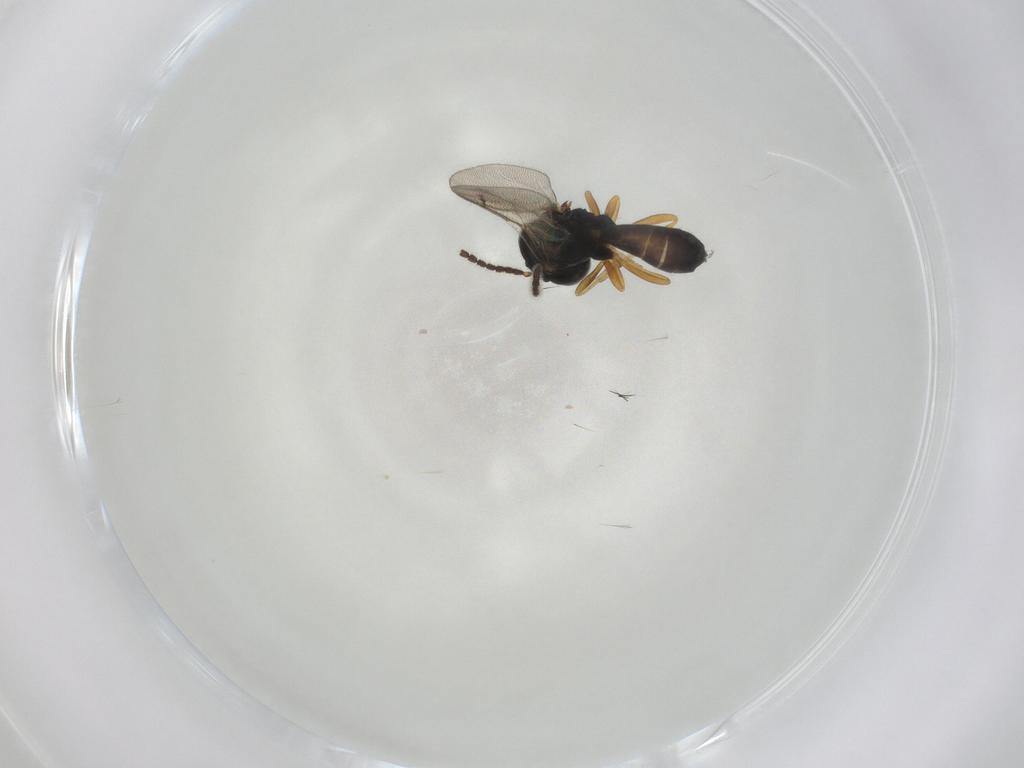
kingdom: Animalia
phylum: Arthropoda
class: Insecta
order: Hymenoptera
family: Pteromalidae
